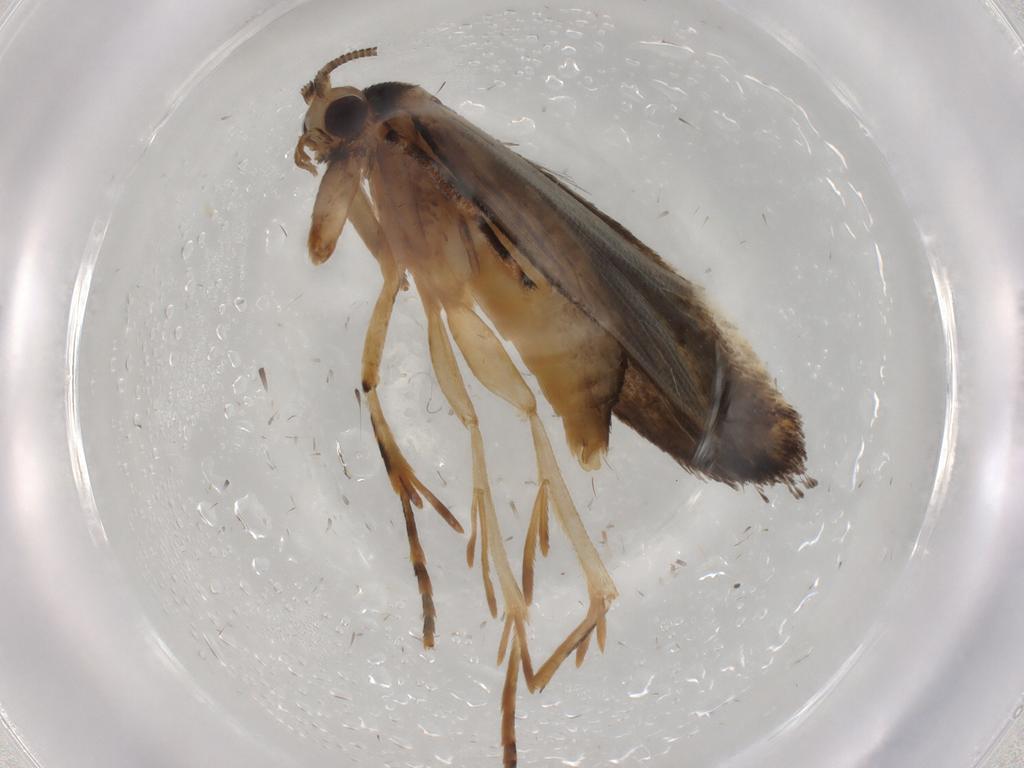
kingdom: Animalia
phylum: Arthropoda
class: Insecta
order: Lepidoptera
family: Tineidae
